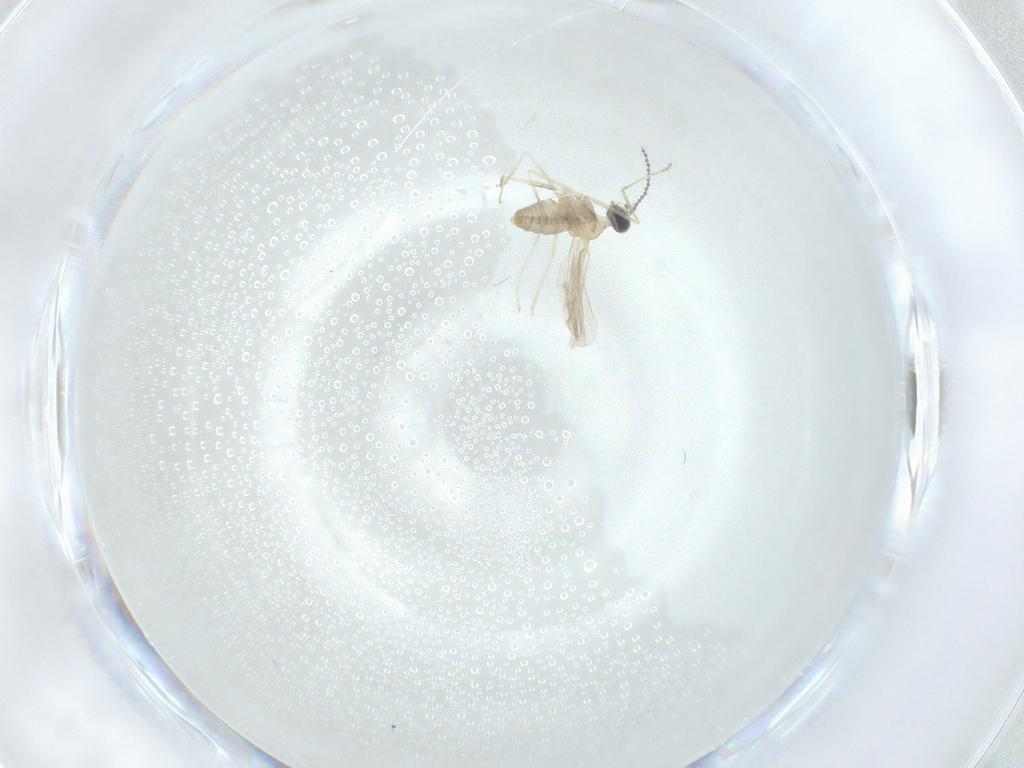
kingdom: Animalia
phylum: Arthropoda
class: Insecta
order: Diptera
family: Cecidomyiidae
